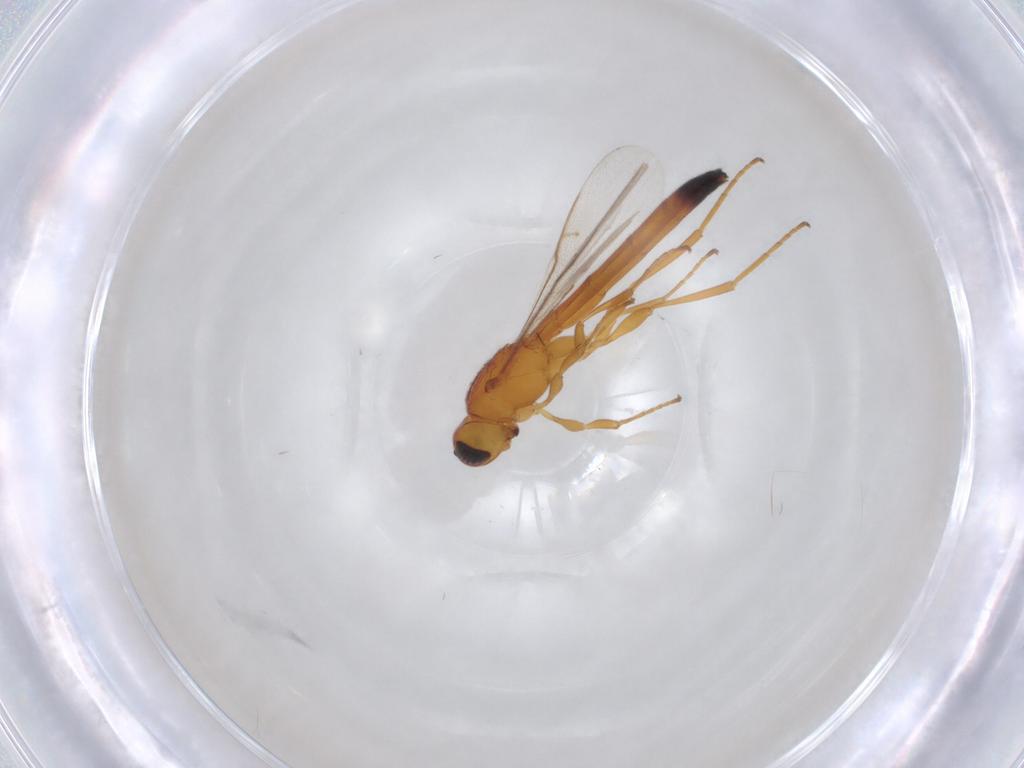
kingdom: Animalia
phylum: Arthropoda
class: Insecta
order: Hymenoptera
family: Scelionidae
